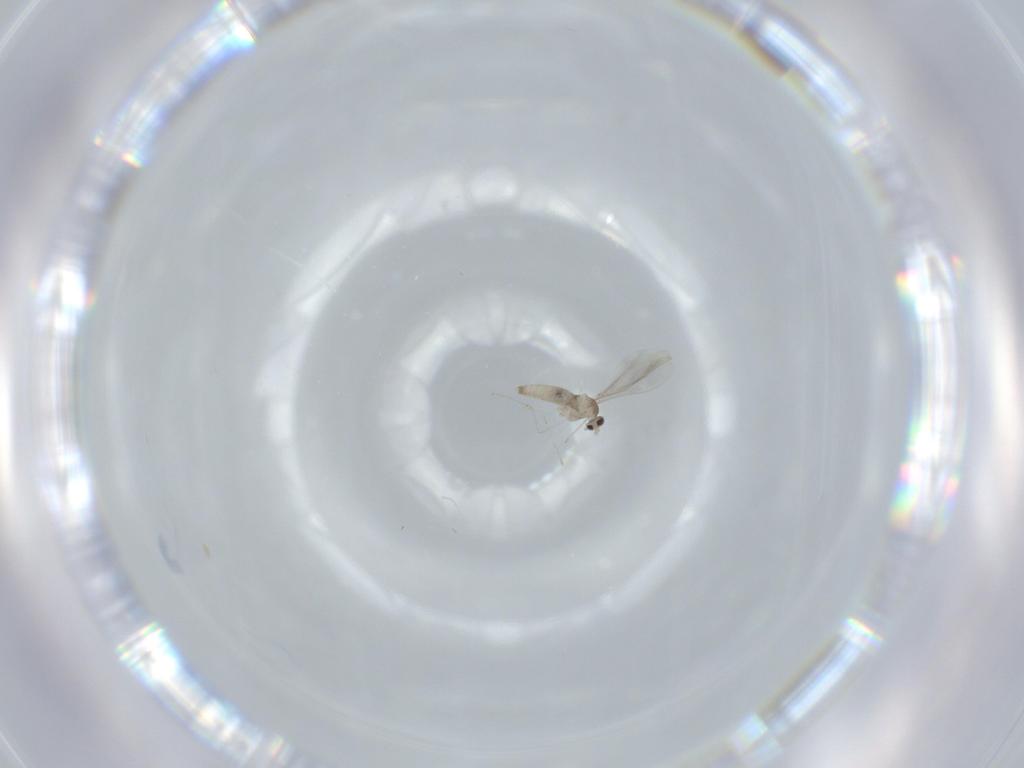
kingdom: Animalia
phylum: Arthropoda
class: Insecta
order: Diptera
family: Cecidomyiidae
